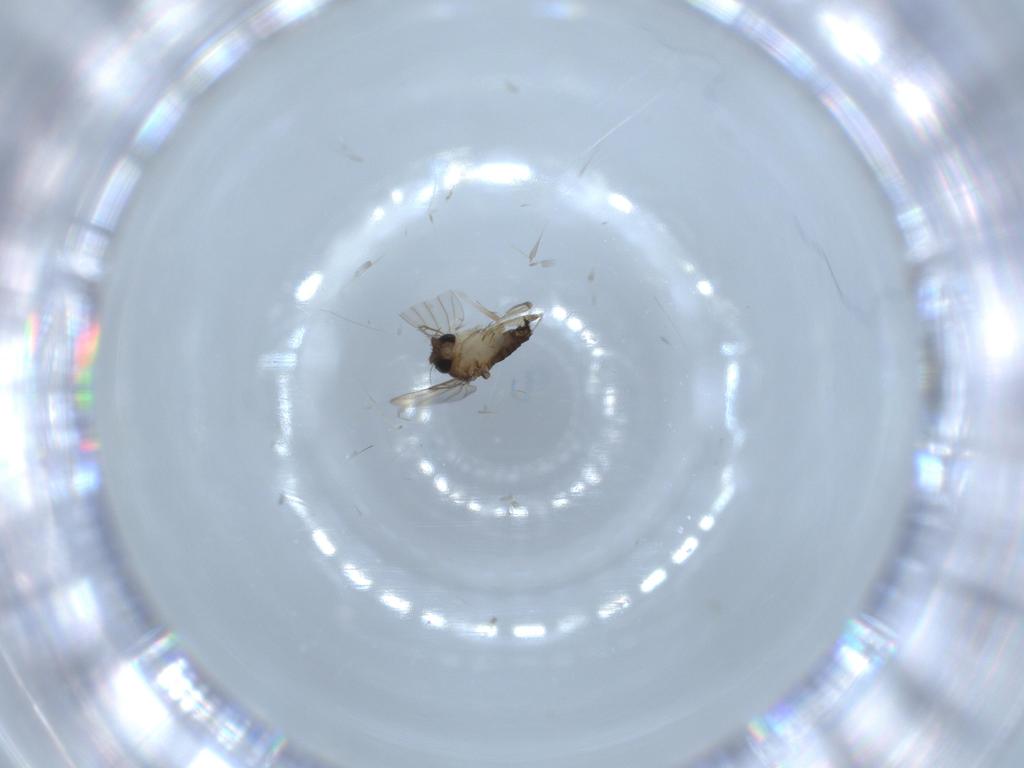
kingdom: Animalia
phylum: Arthropoda
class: Insecta
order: Diptera
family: Phoridae
